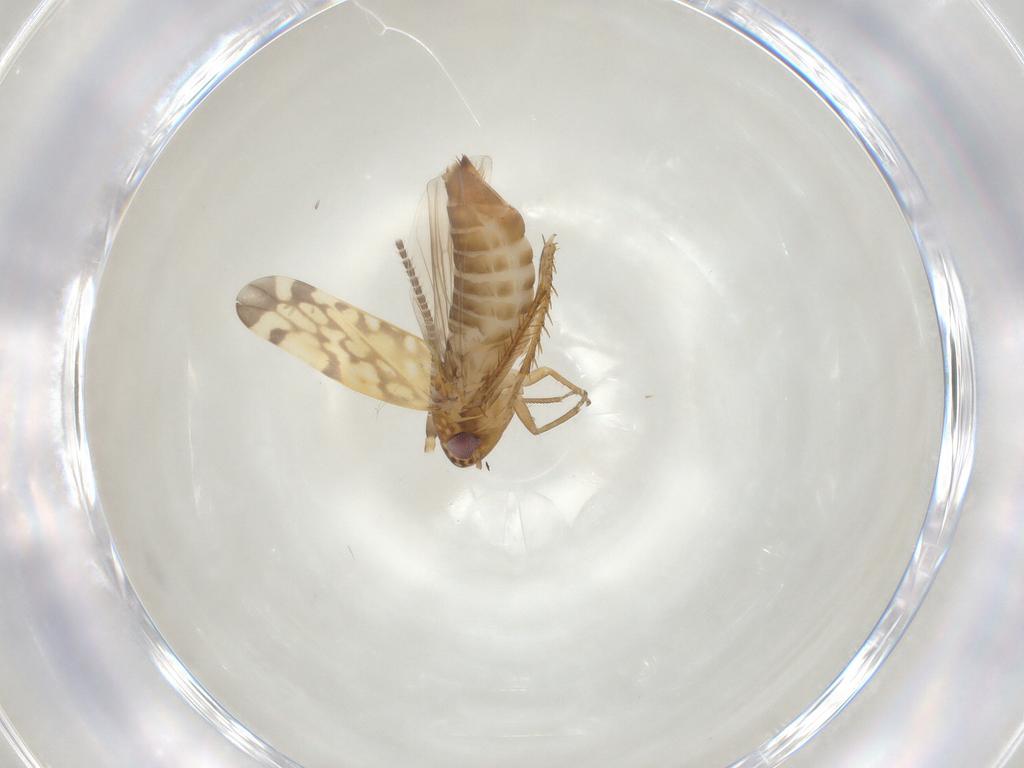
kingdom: Animalia
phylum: Arthropoda
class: Insecta
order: Hemiptera
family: Cicadellidae
